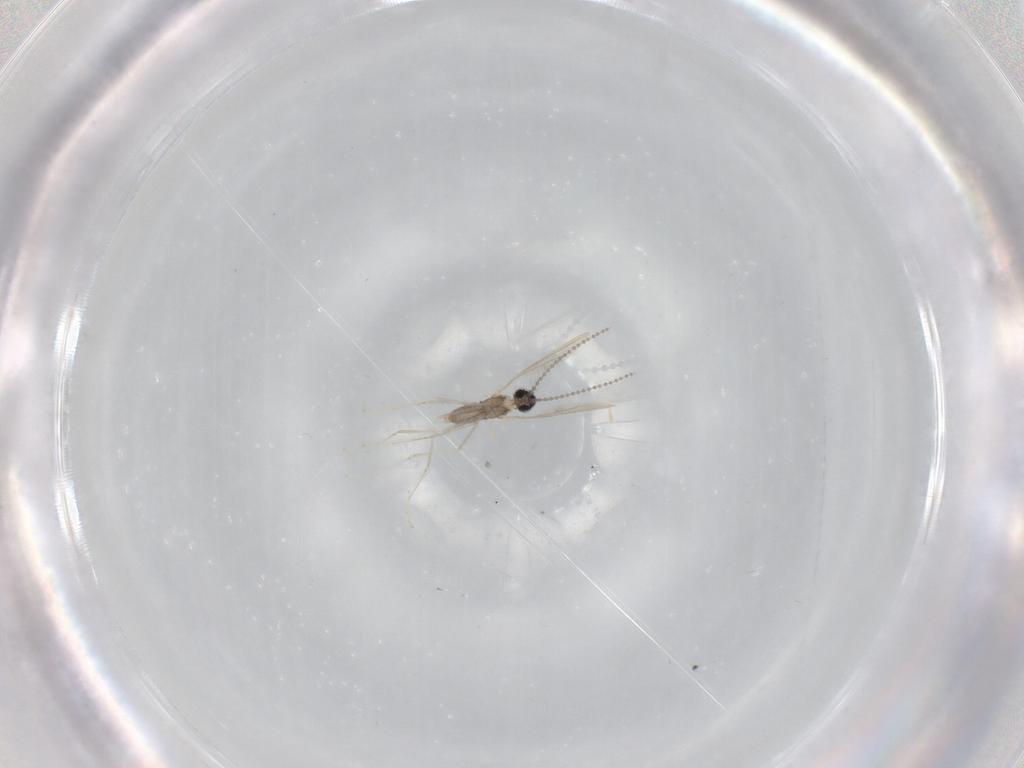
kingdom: Animalia
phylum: Arthropoda
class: Insecta
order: Diptera
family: Cecidomyiidae
